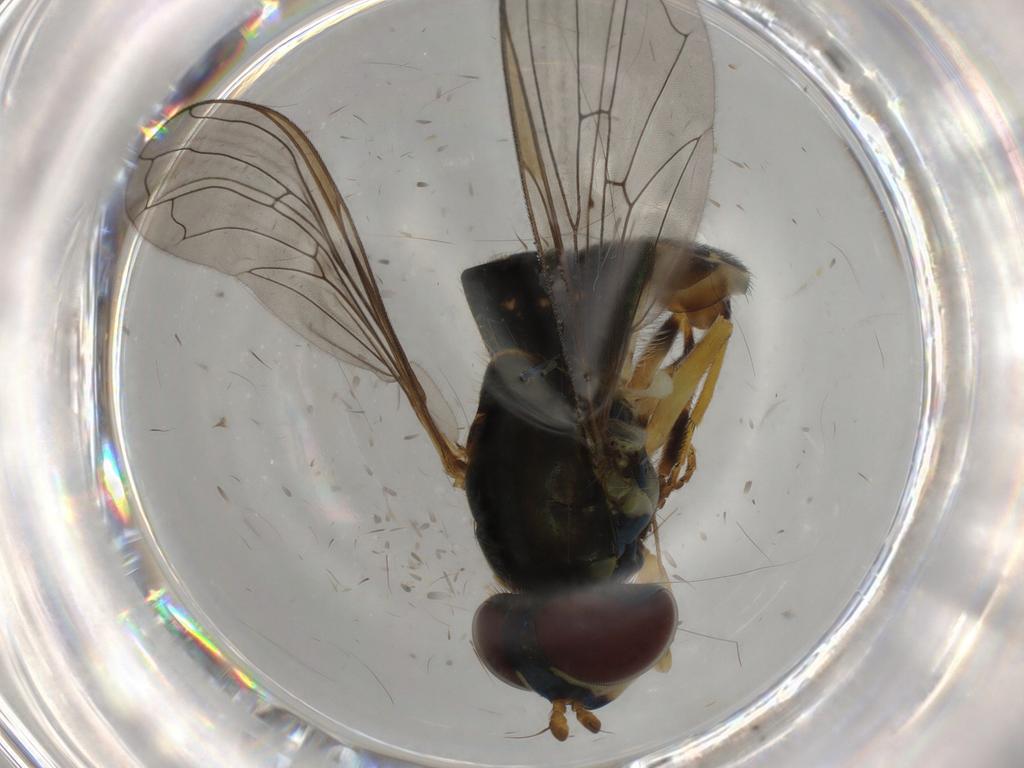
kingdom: Animalia
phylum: Arthropoda
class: Insecta
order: Diptera
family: Syrphidae
